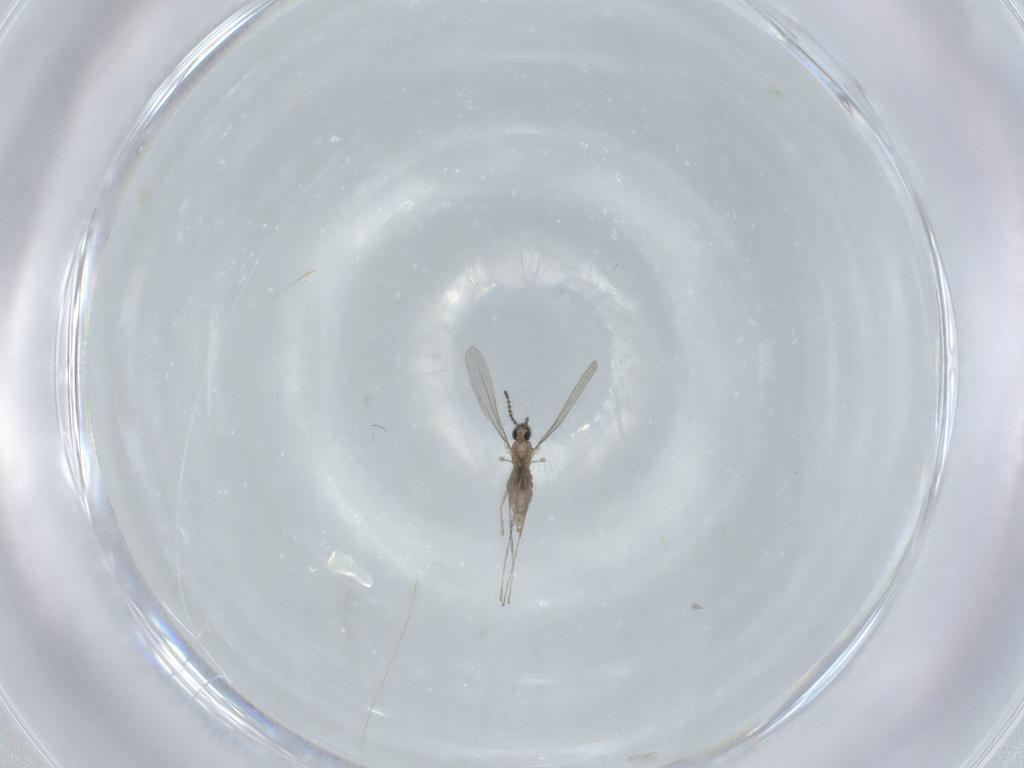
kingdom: Animalia
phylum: Arthropoda
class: Insecta
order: Diptera
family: Cecidomyiidae
